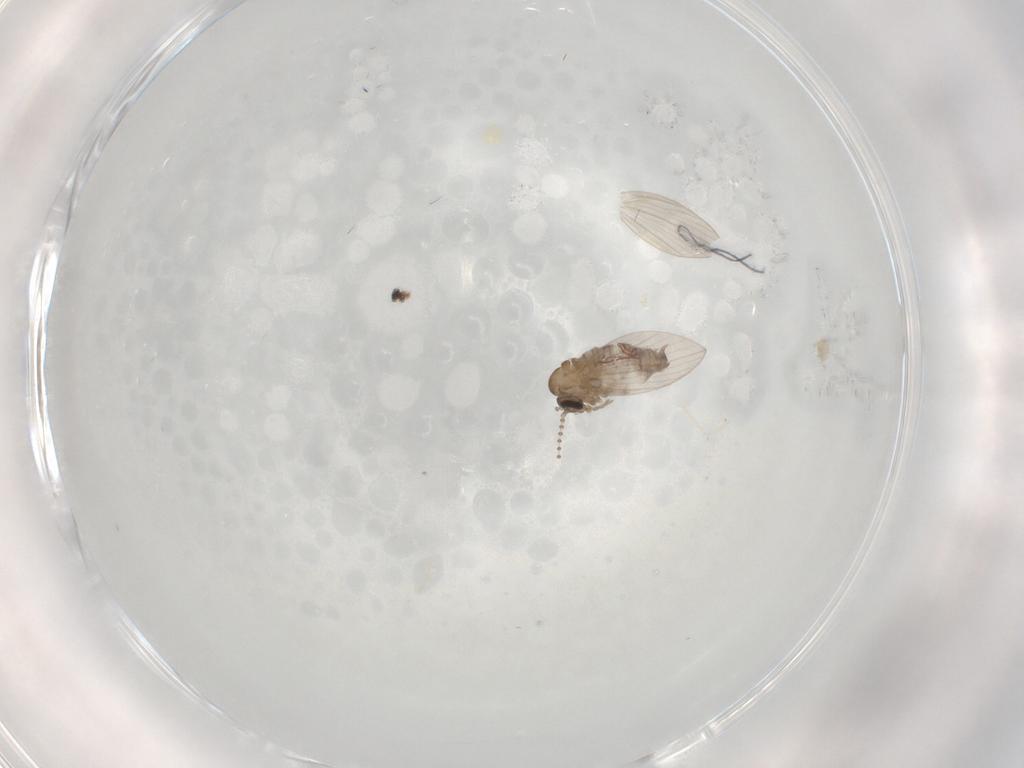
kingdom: Animalia
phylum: Arthropoda
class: Insecta
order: Diptera
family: Psychodidae
